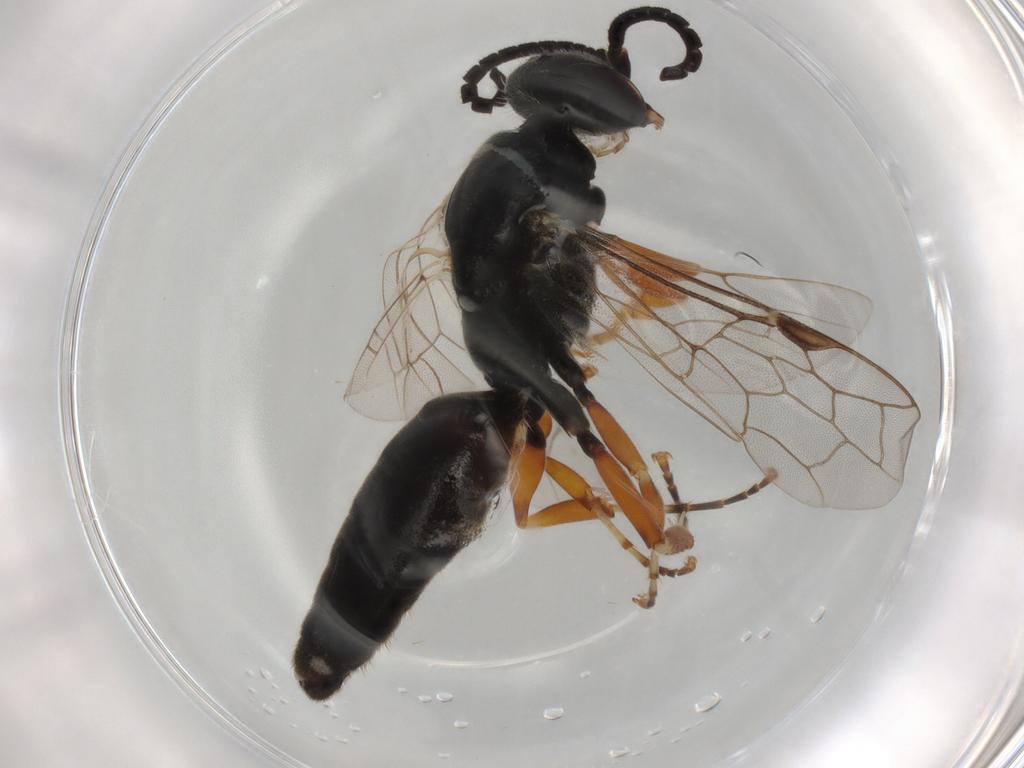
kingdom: Animalia
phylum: Arthropoda
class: Insecta
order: Hymenoptera
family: Thynnidae
